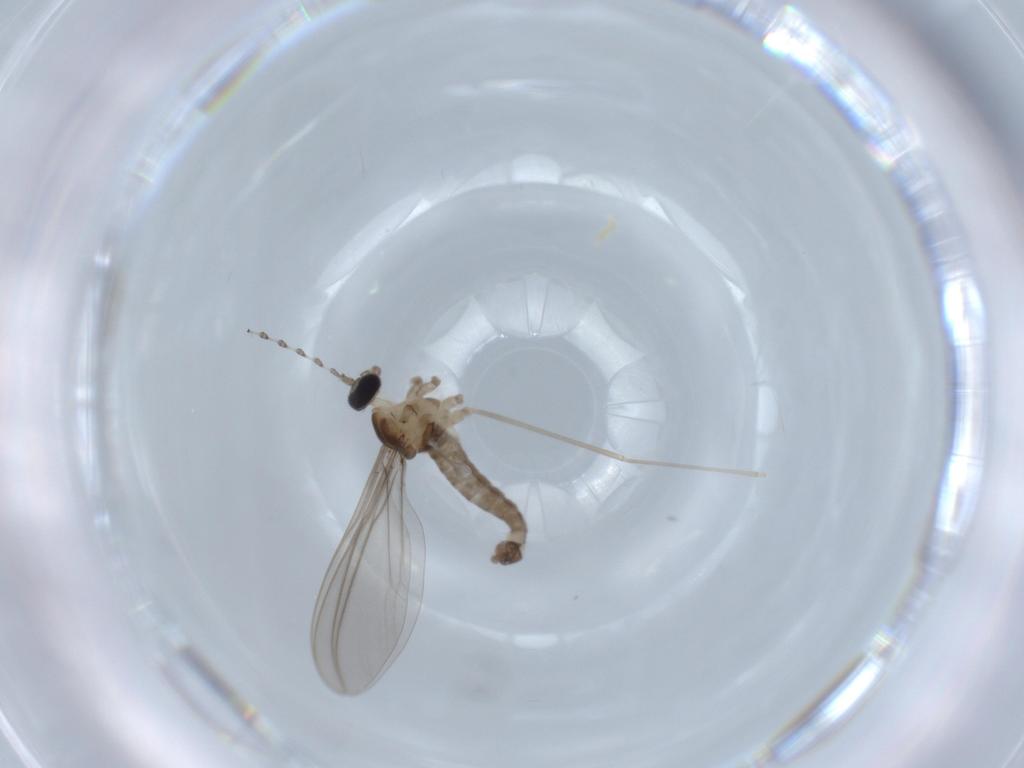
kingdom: Animalia
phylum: Arthropoda
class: Insecta
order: Diptera
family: Cecidomyiidae
